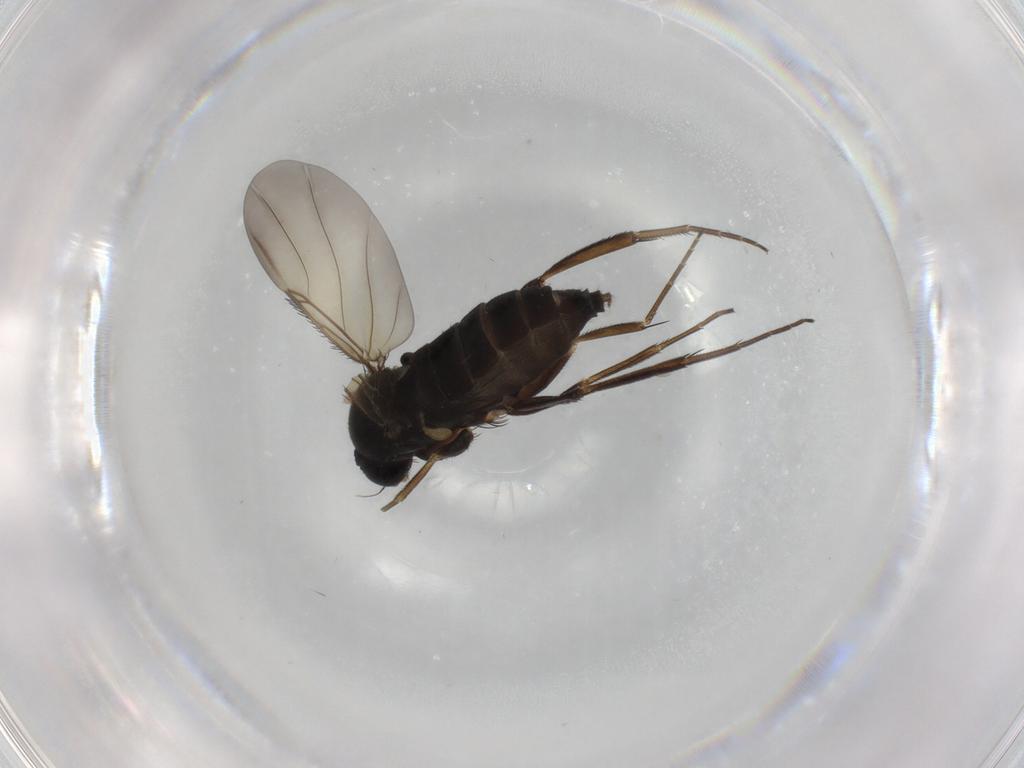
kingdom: Animalia
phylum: Arthropoda
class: Insecta
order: Diptera
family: Phoridae
